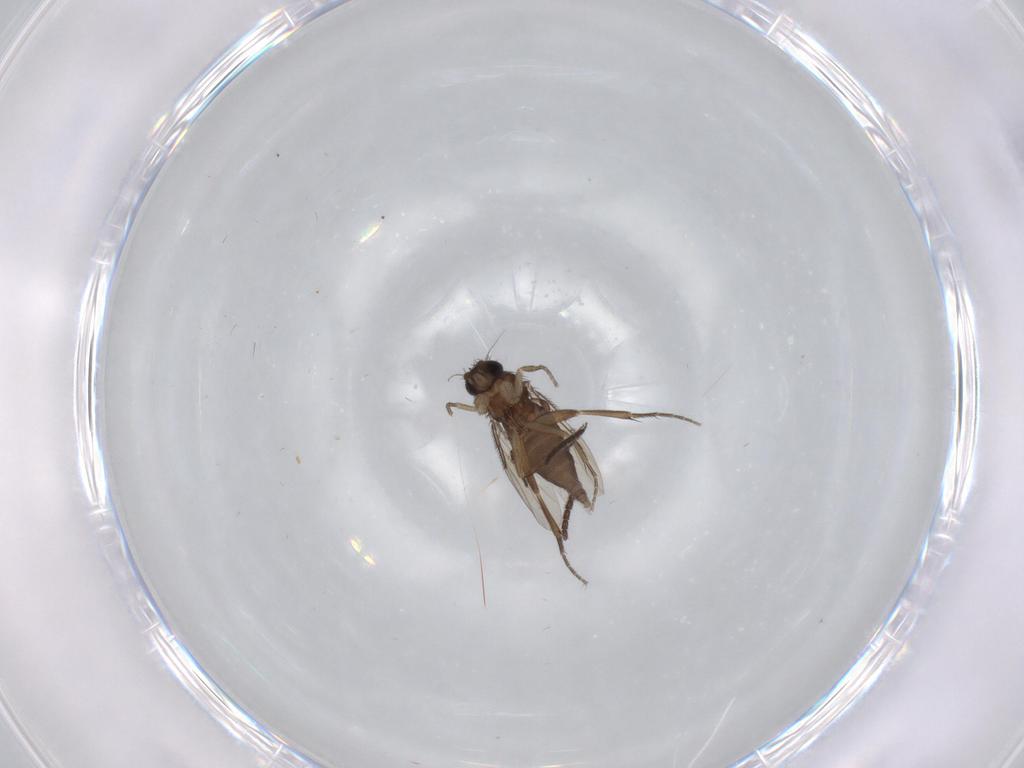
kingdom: Animalia
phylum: Arthropoda
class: Insecta
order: Diptera
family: Phoridae
